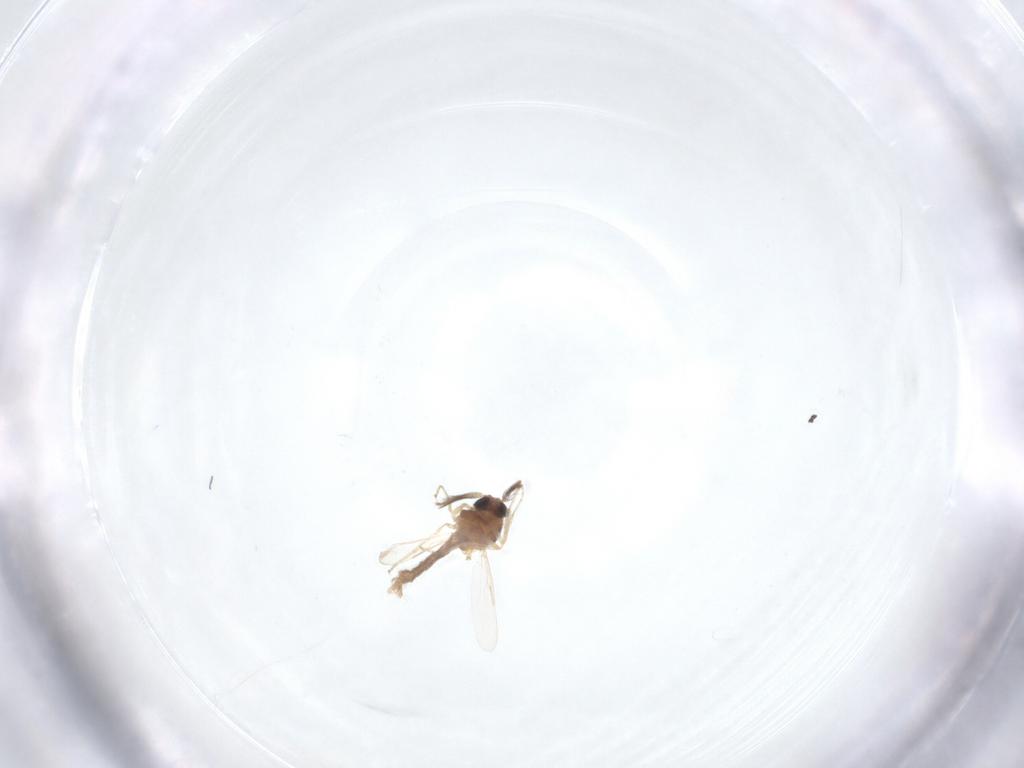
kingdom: Animalia
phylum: Arthropoda
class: Insecta
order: Diptera
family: Ceratopogonidae
